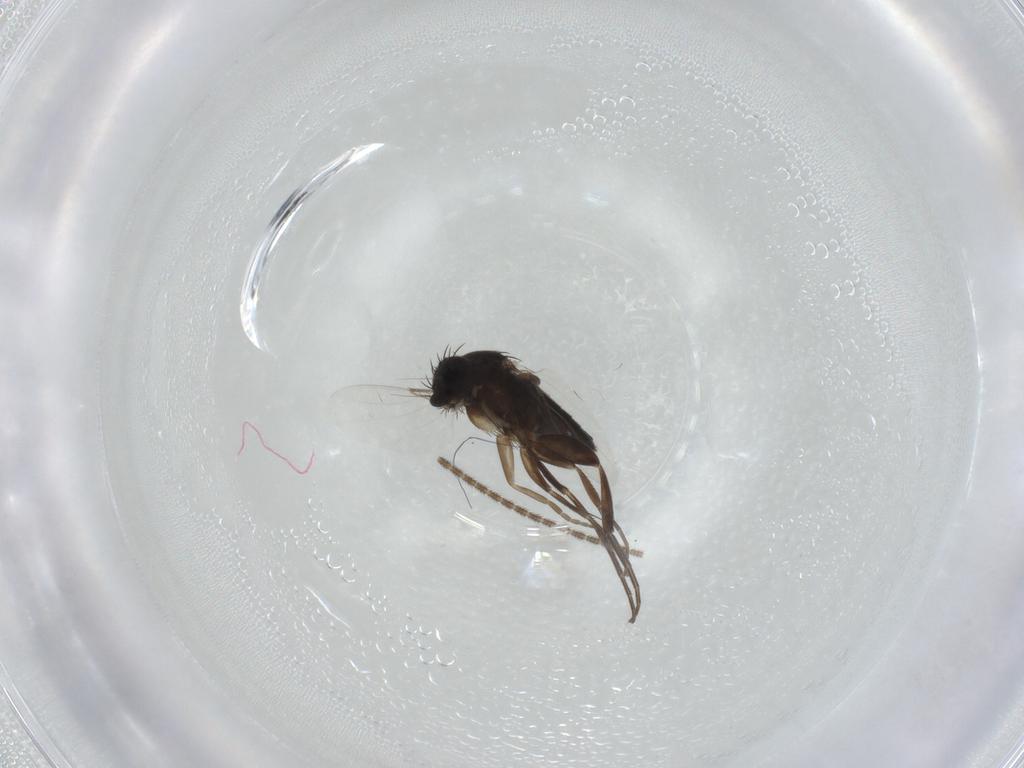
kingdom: Animalia
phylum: Arthropoda
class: Insecta
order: Diptera
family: Phoridae
